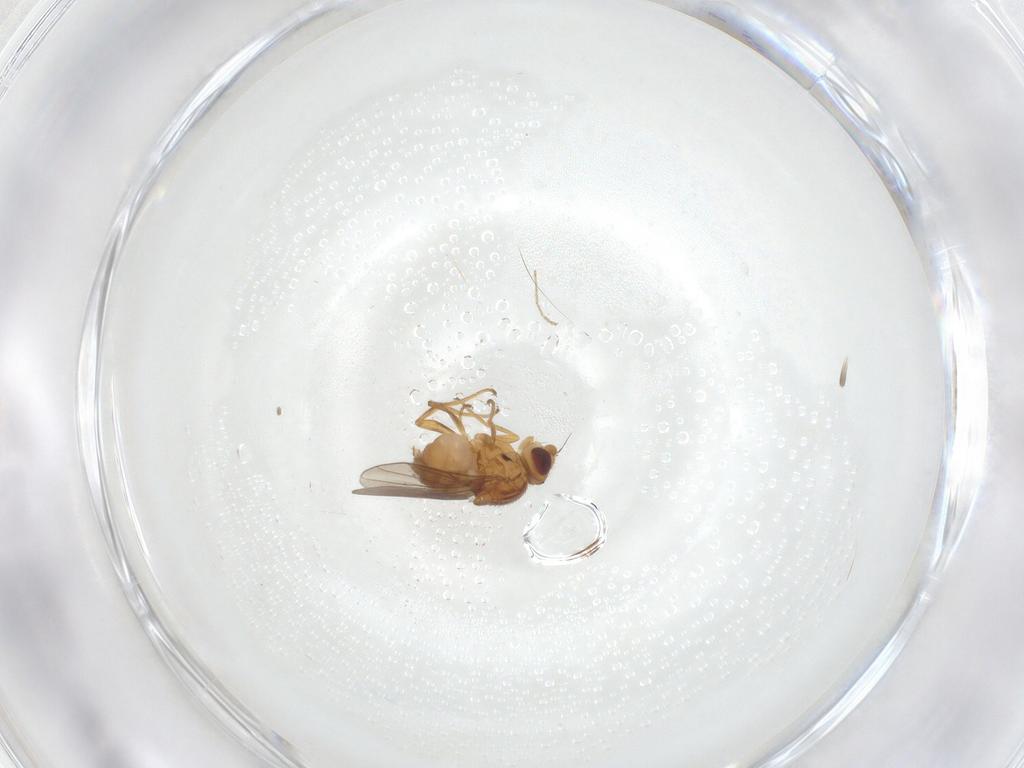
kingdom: Animalia
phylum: Arthropoda
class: Insecta
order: Diptera
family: Chloropidae
